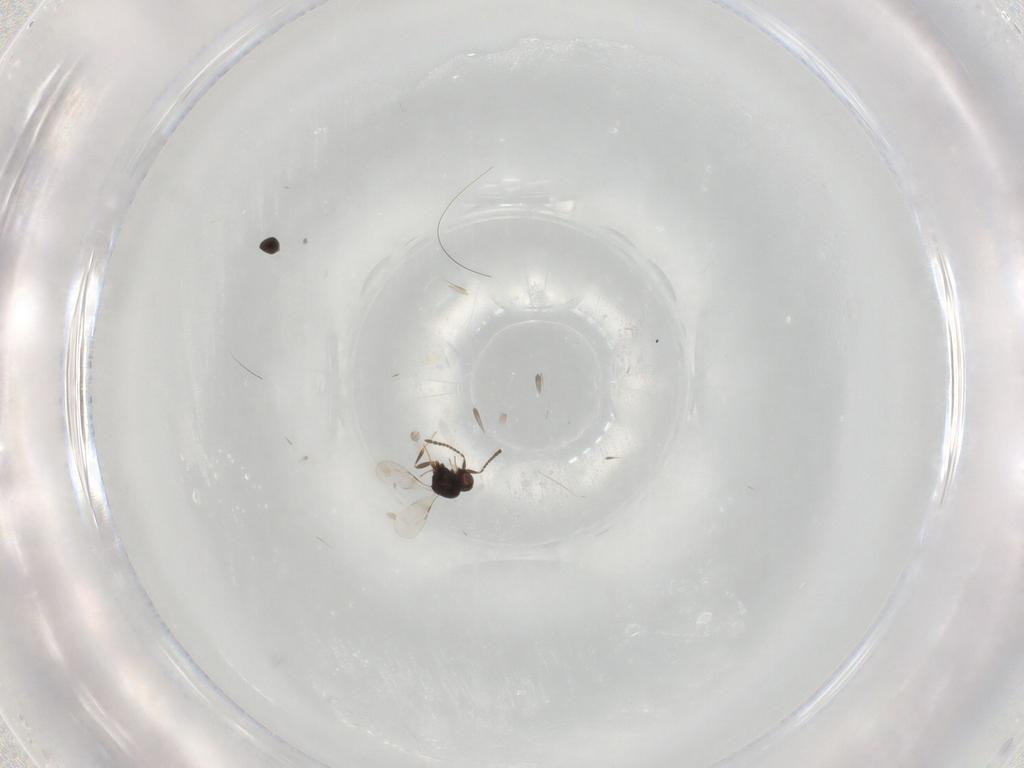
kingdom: Animalia
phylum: Arthropoda
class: Insecta
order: Hymenoptera
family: Scelionidae
